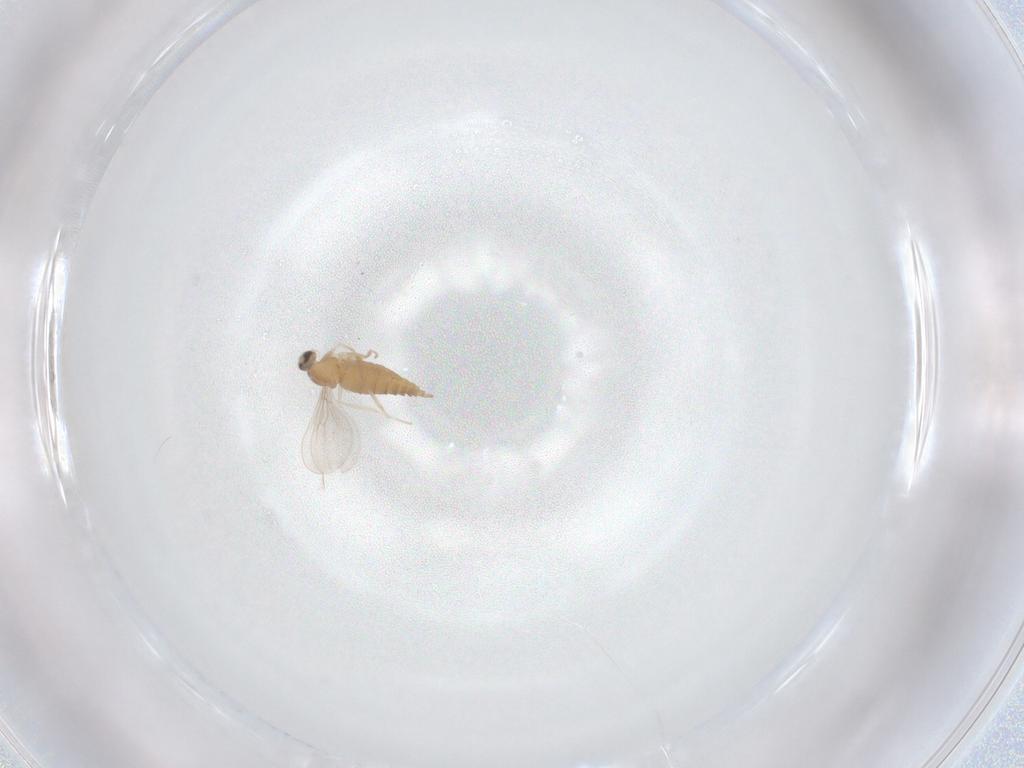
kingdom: Animalia
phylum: Arthropoda
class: Insecta
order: Diptera
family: Cecidomyiidae
